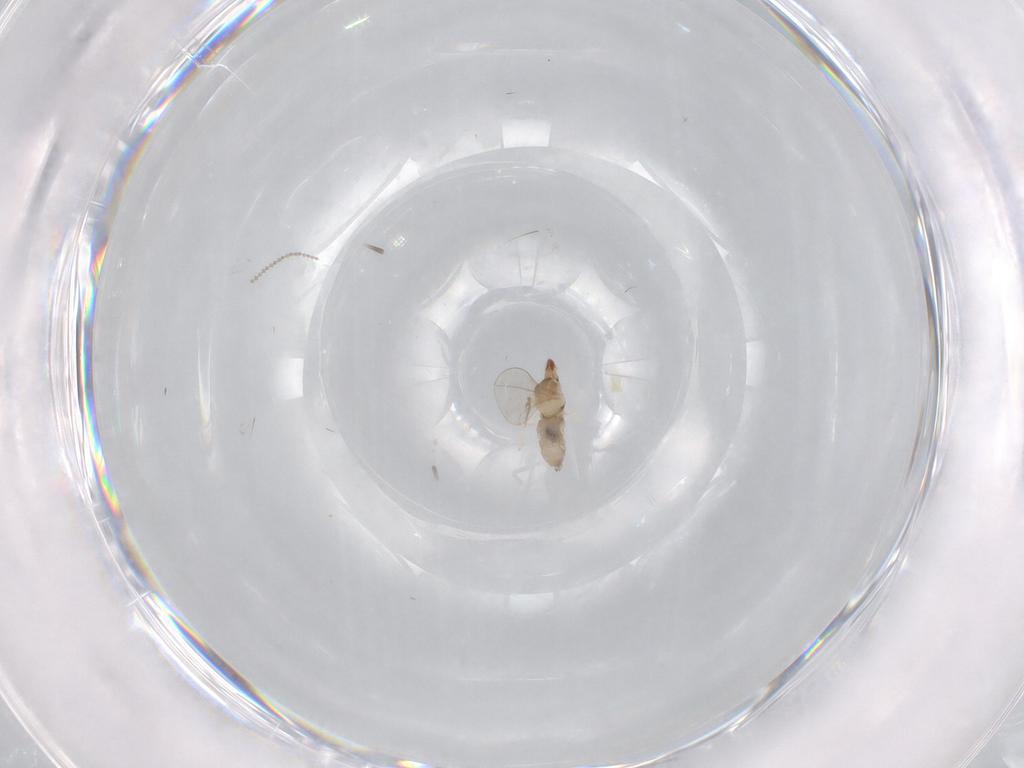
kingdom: Animalia
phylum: Arthropoda
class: Insecta
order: Diptera
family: Cecidomyiidae
